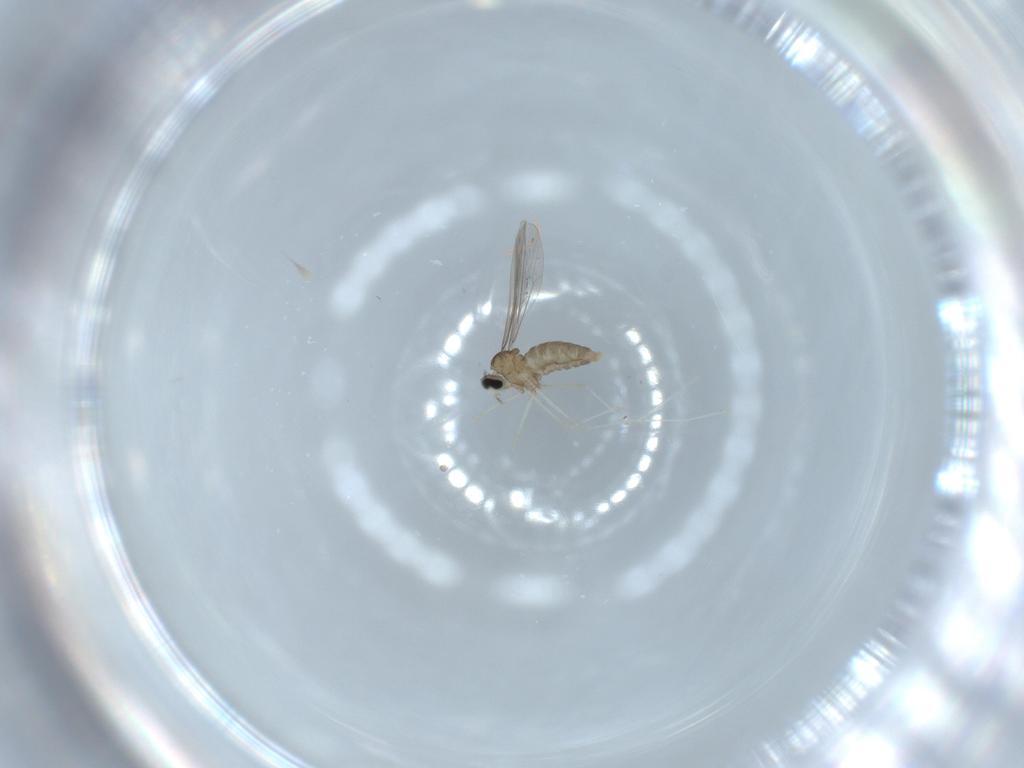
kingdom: Animalia
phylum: Arthropoda
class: Insecta
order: Diptera
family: Cecidomyiidae
